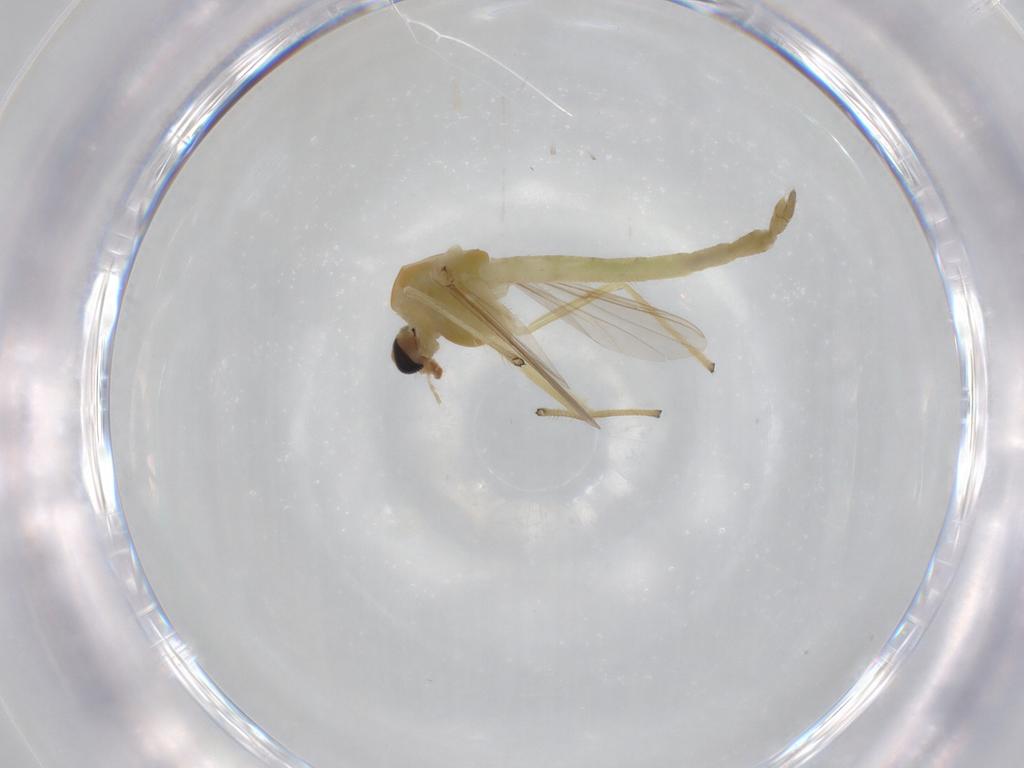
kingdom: Animalia
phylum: Arthropoda
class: Insecta
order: Diptera
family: Chironomidae
